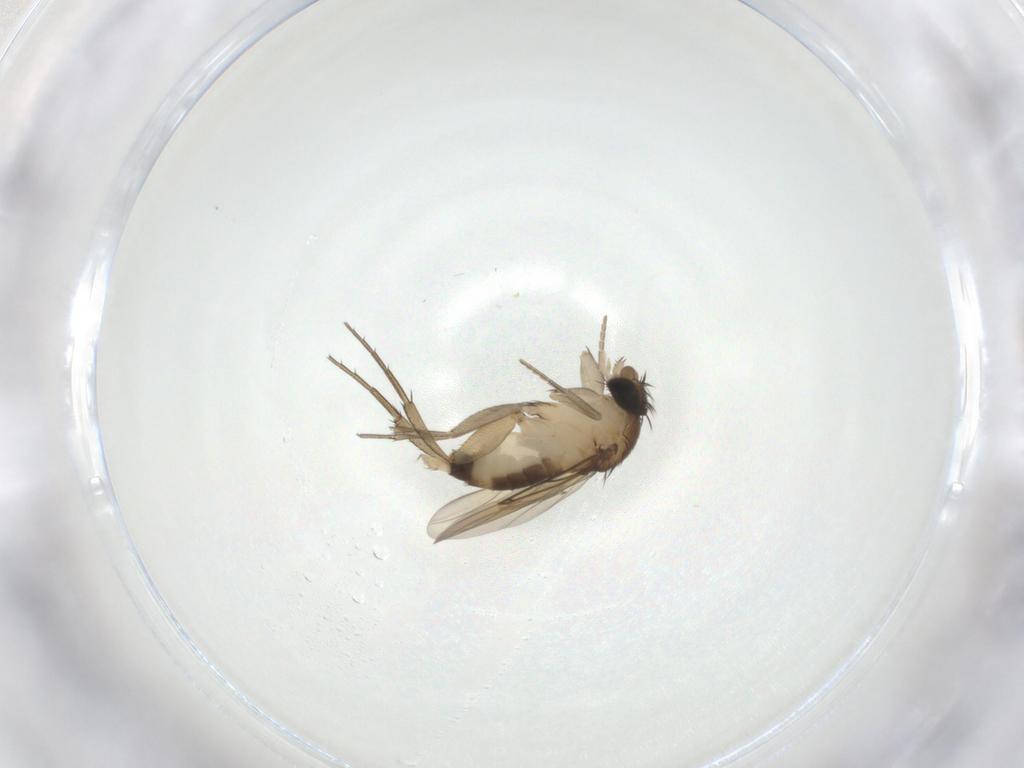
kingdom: Animalia
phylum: Arthropoda
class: Insecta
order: Diptera
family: Phoridae
